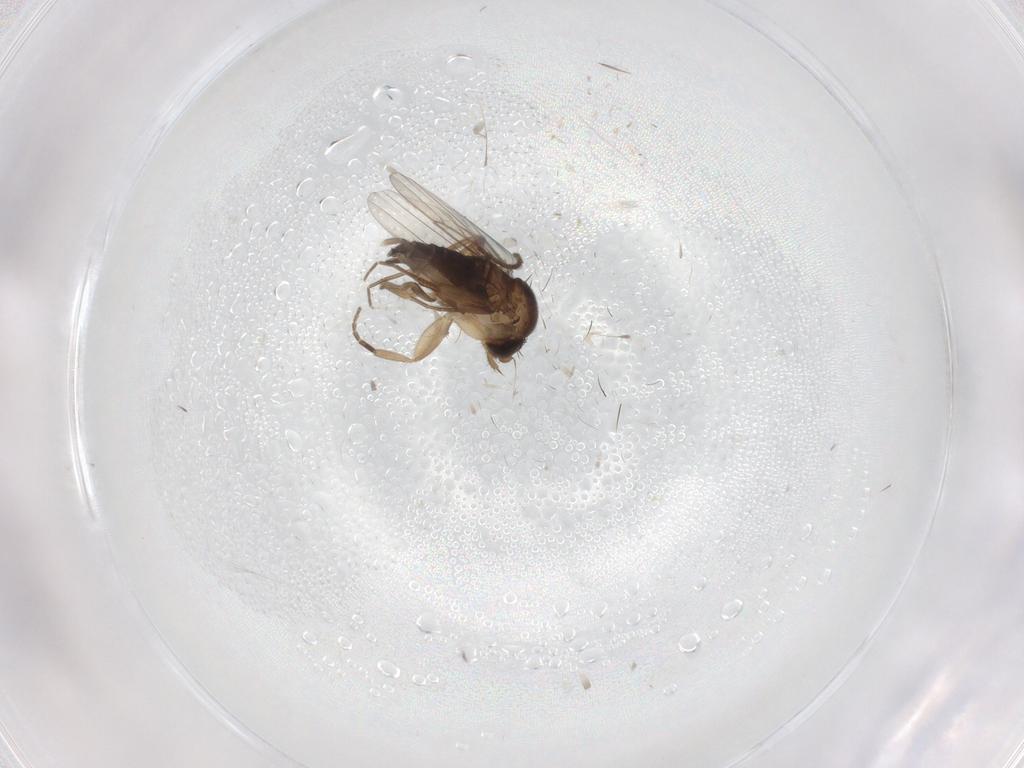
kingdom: Animalia
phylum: Arthropoda
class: Insecta
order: Diptera
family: Phoridae
